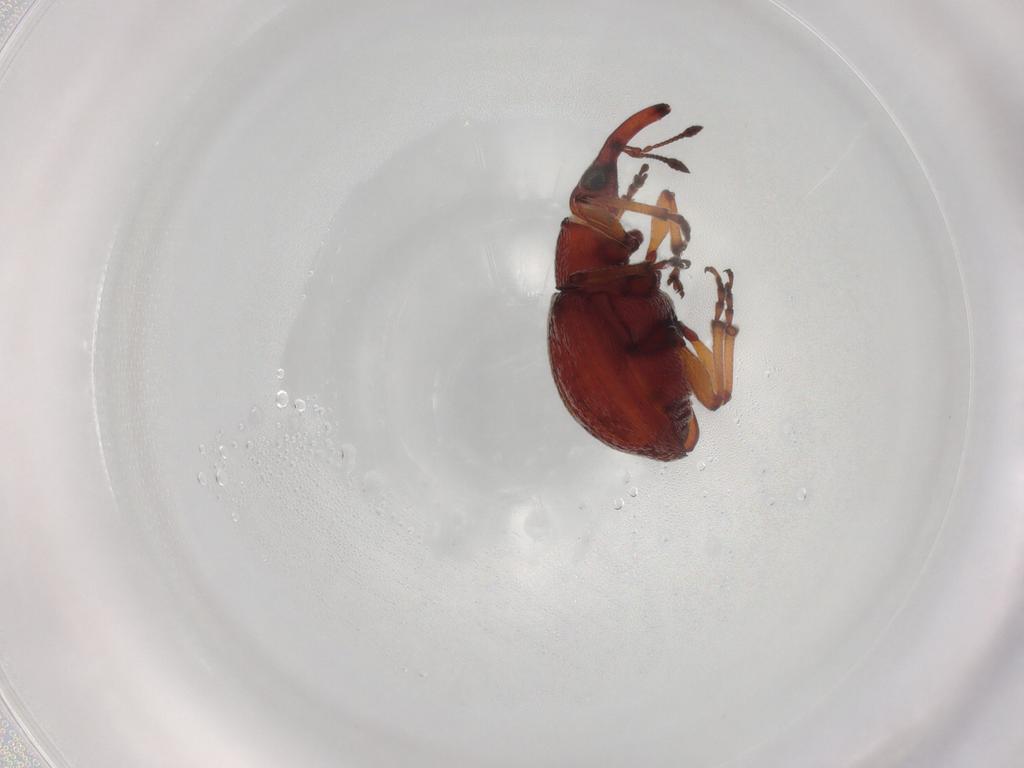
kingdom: Animalia
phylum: Arthropoda
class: Insecta
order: Coleoptera
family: Brentidae
